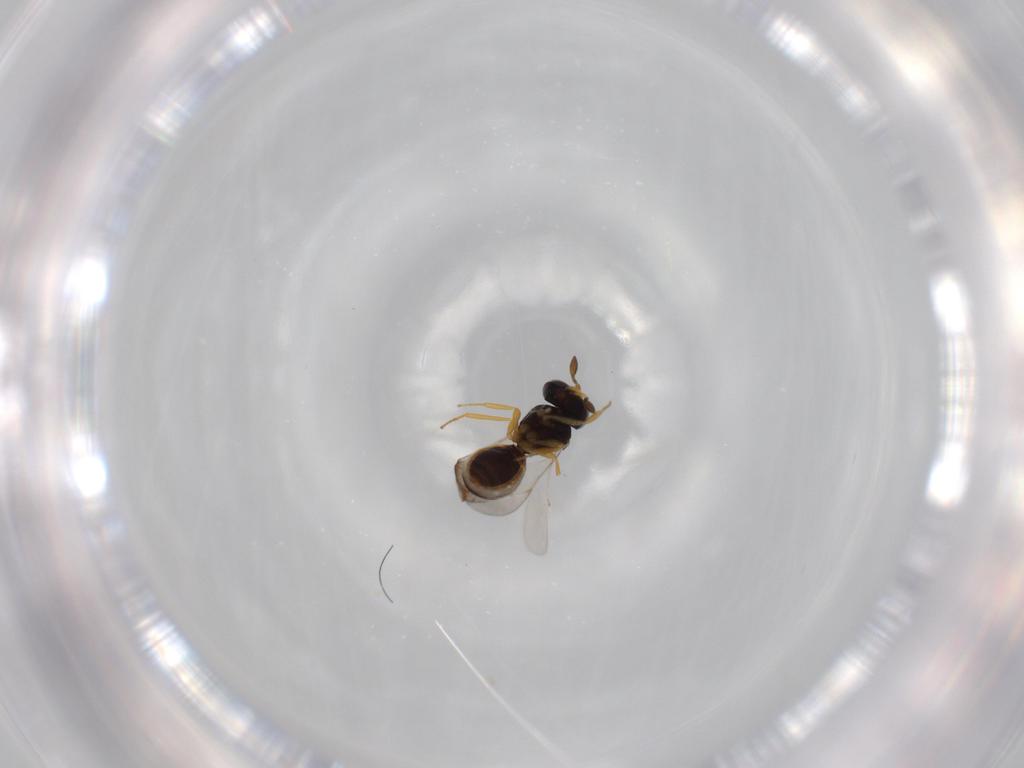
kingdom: Animalia
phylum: Arthropoda
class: Insecta
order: Hymenoptera
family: Scelionidae
